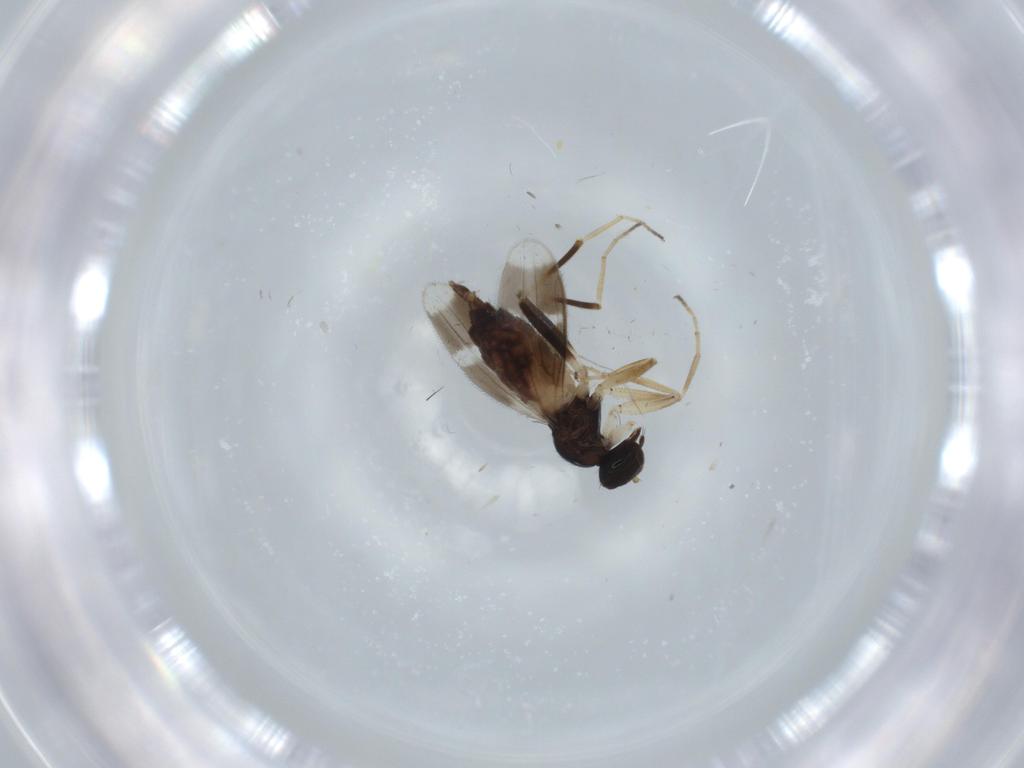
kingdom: Animalia
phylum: Arthropoda
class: Insecta
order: Diptera
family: Hybotidae
